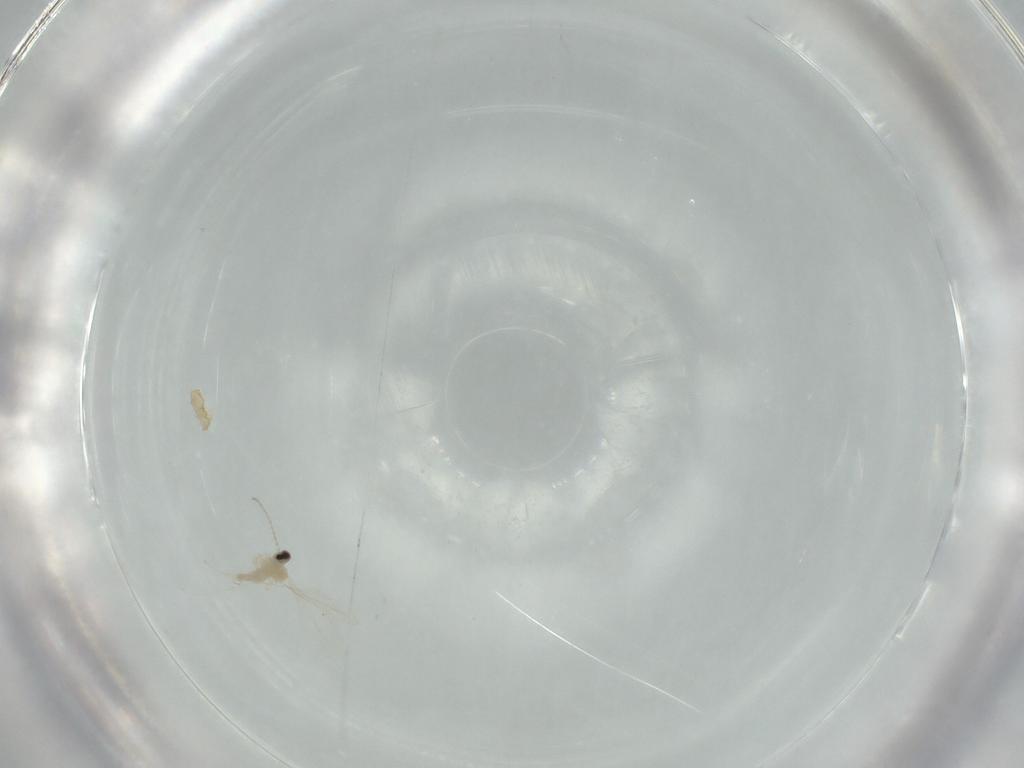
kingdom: Animalia
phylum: Arthropoda
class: Insecta
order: Diptera
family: Cecidomyiidae
